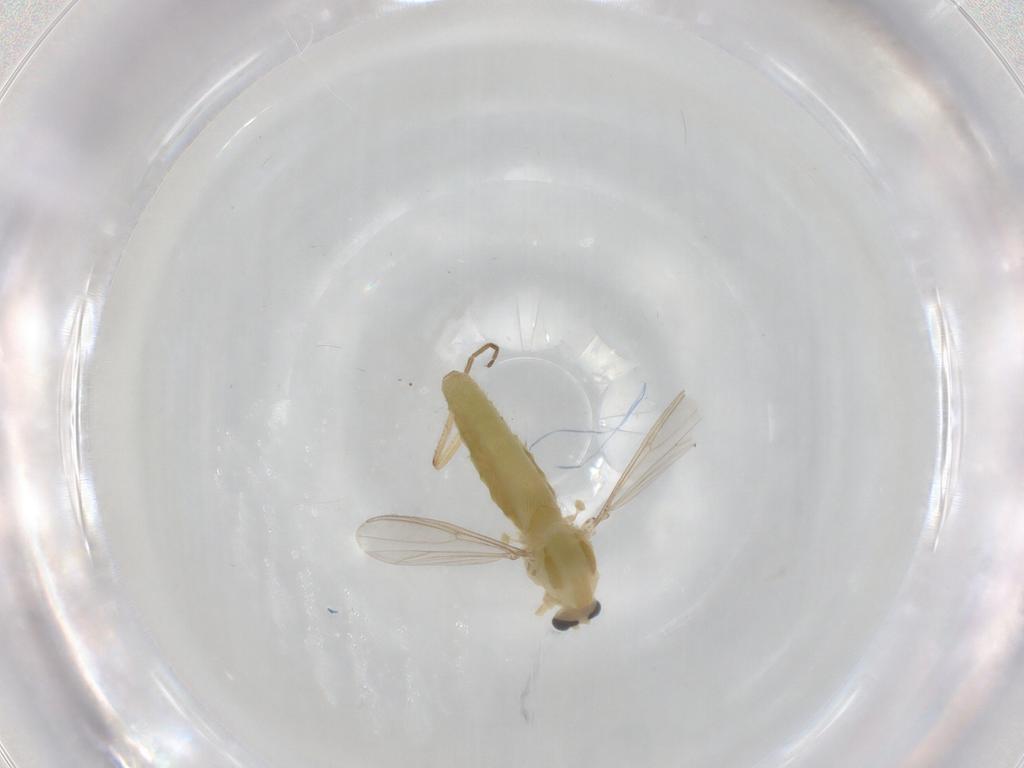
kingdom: Animalia
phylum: Arthropoda
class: Insecta
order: Diptera
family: Chironomidae
